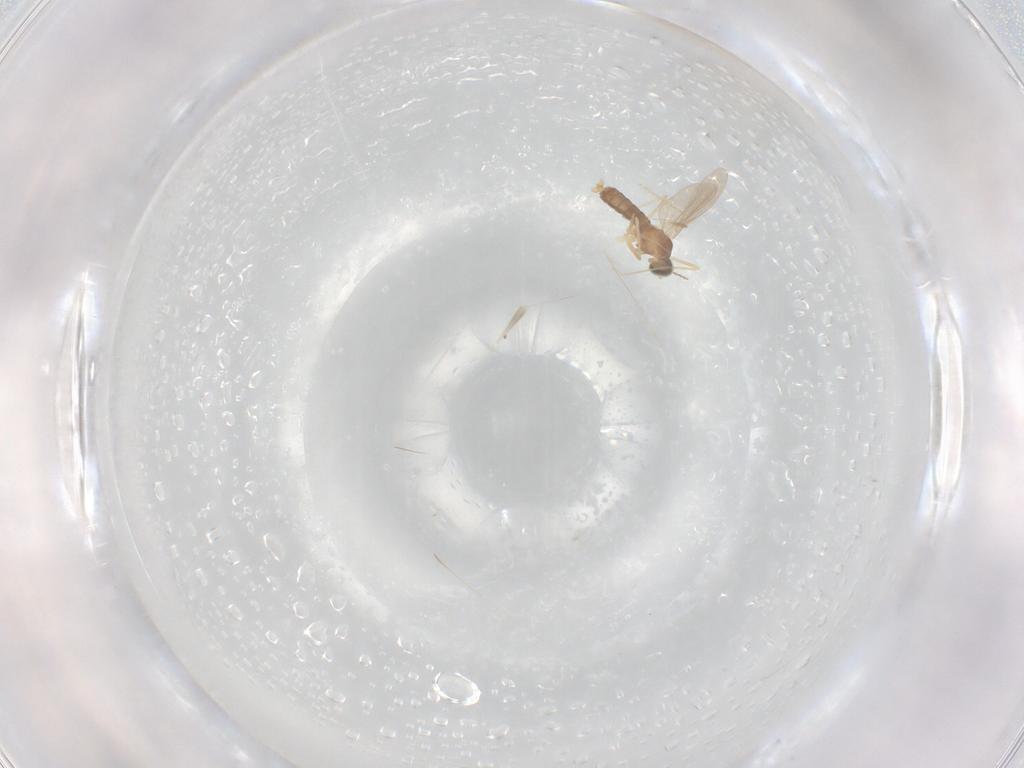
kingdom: Animalia
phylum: Arthropoda
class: Insecta
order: Diptera
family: Cecidomyiidae
